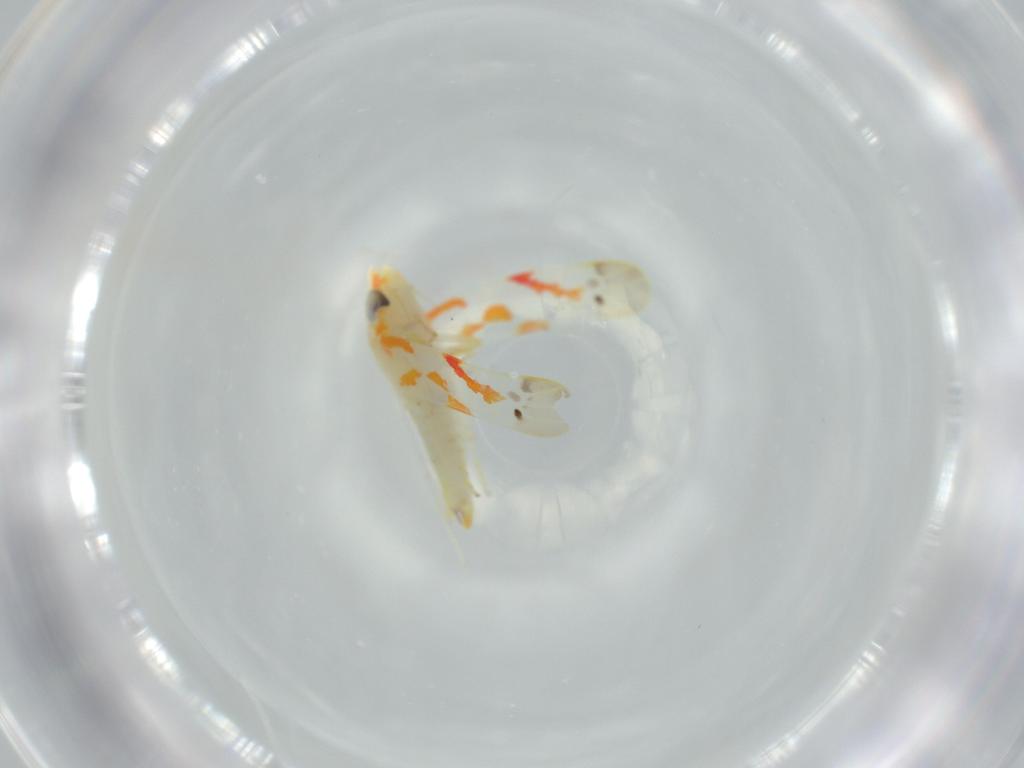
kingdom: Animalia
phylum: Arthropoda
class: Insecta
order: Hemiptera
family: Cicadellidae
